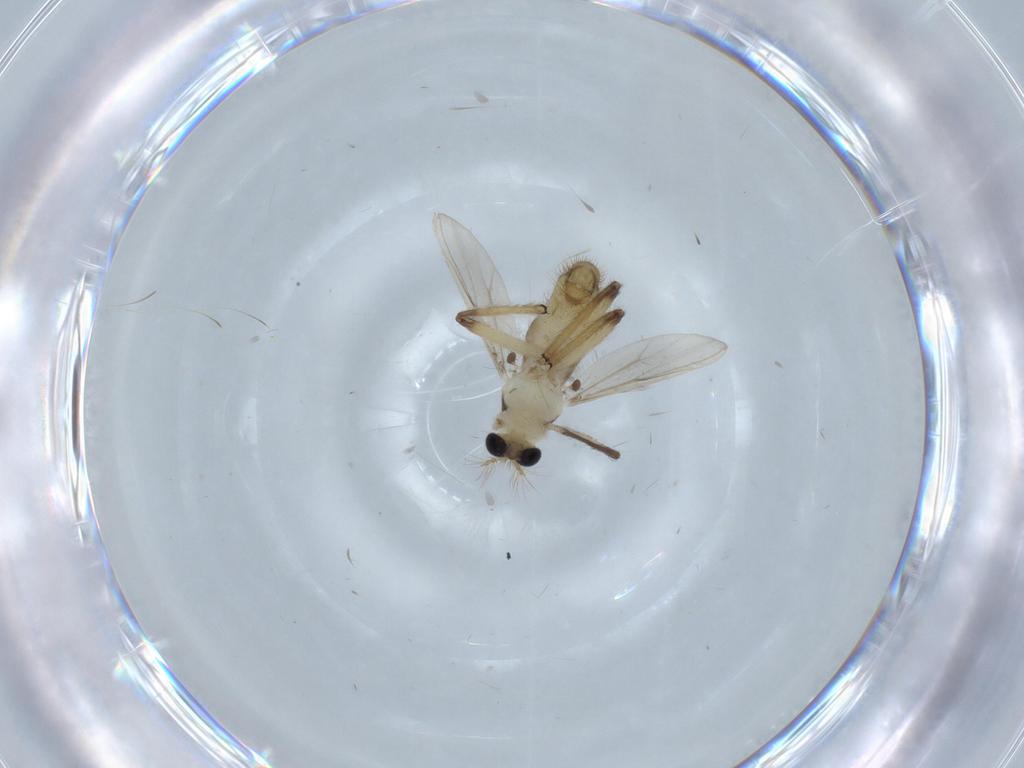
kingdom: Animalia
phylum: Arthropoda
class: Insecta
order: Diptera
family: Chironomidae
